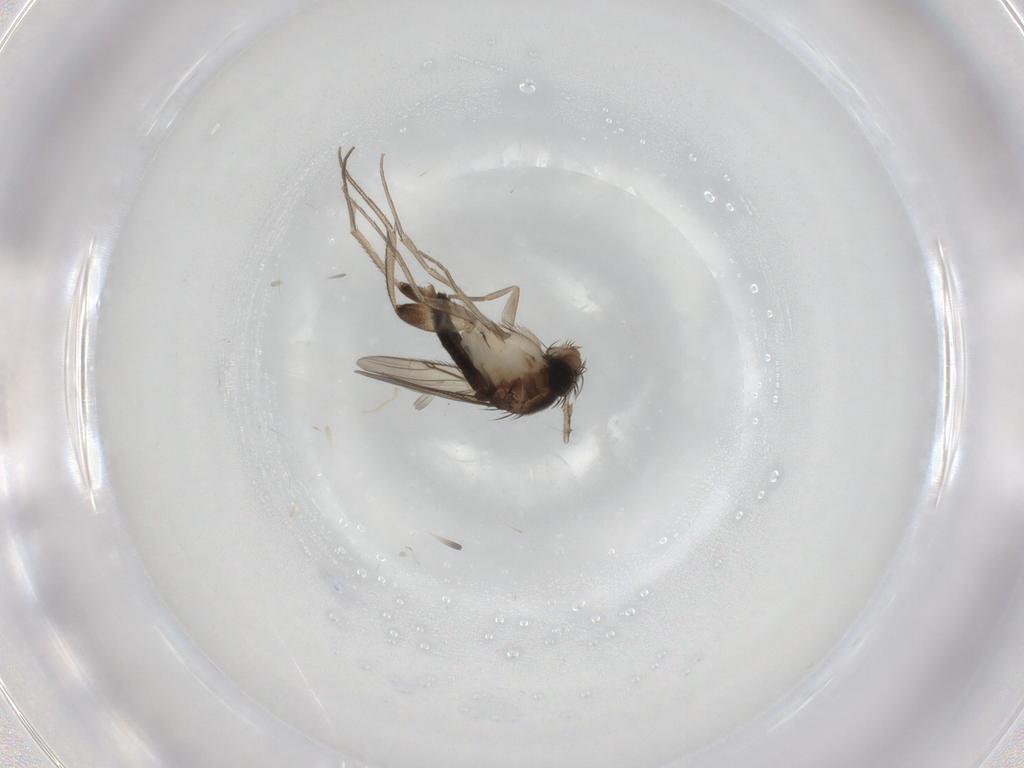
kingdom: Animalia
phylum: Arthropoda
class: Insecta
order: Diptera
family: Phoridae
